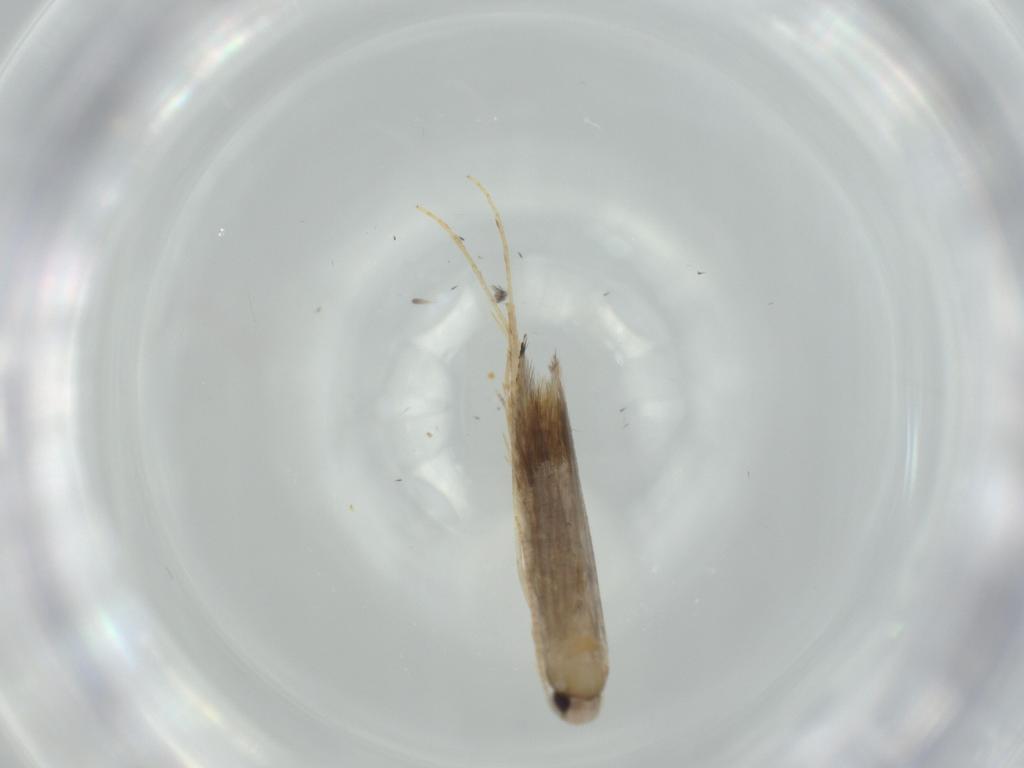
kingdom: Animalia
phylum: Arthropoda
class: Insecta
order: Lepidoptera
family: Gracillariidae
